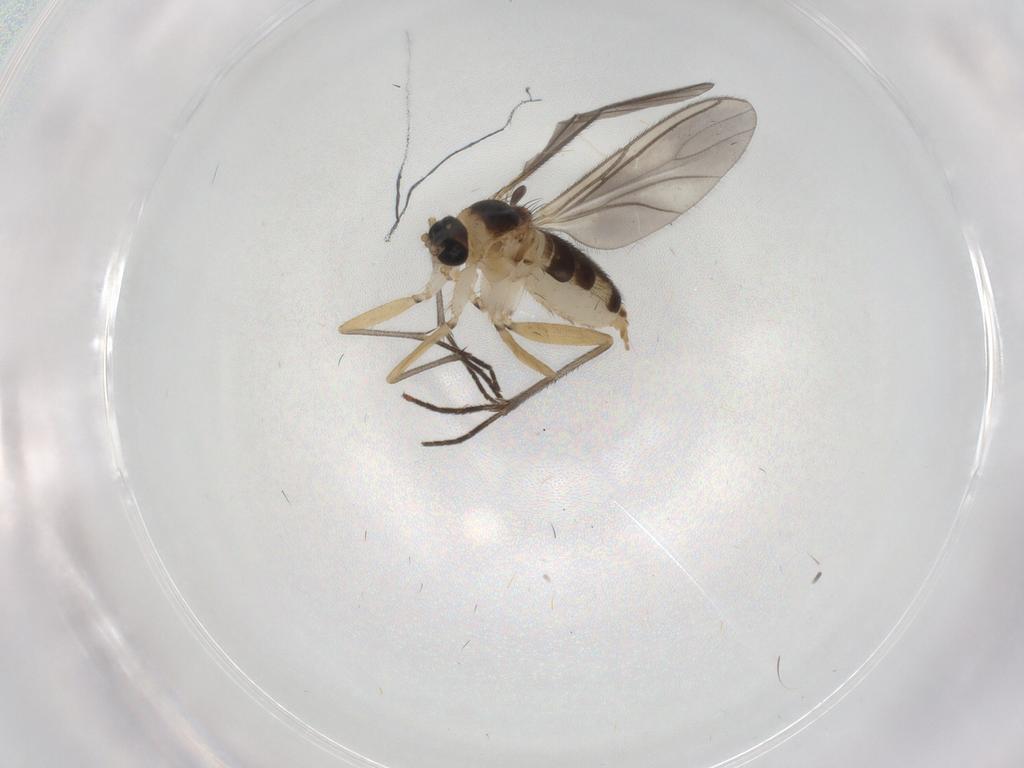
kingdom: Animalia
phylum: Arthropoda
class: Insecta
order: Diptera
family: Sciaridae
